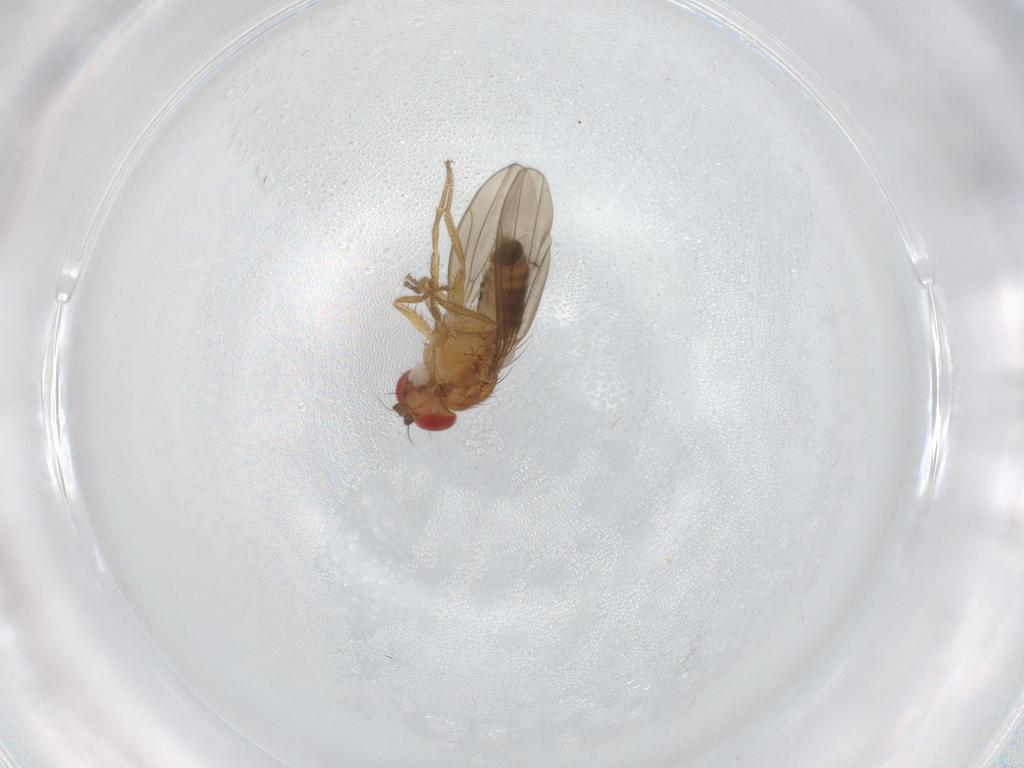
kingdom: Animalia
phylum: Arthropoda
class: Insecta
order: Diptera
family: Drosophilidae
